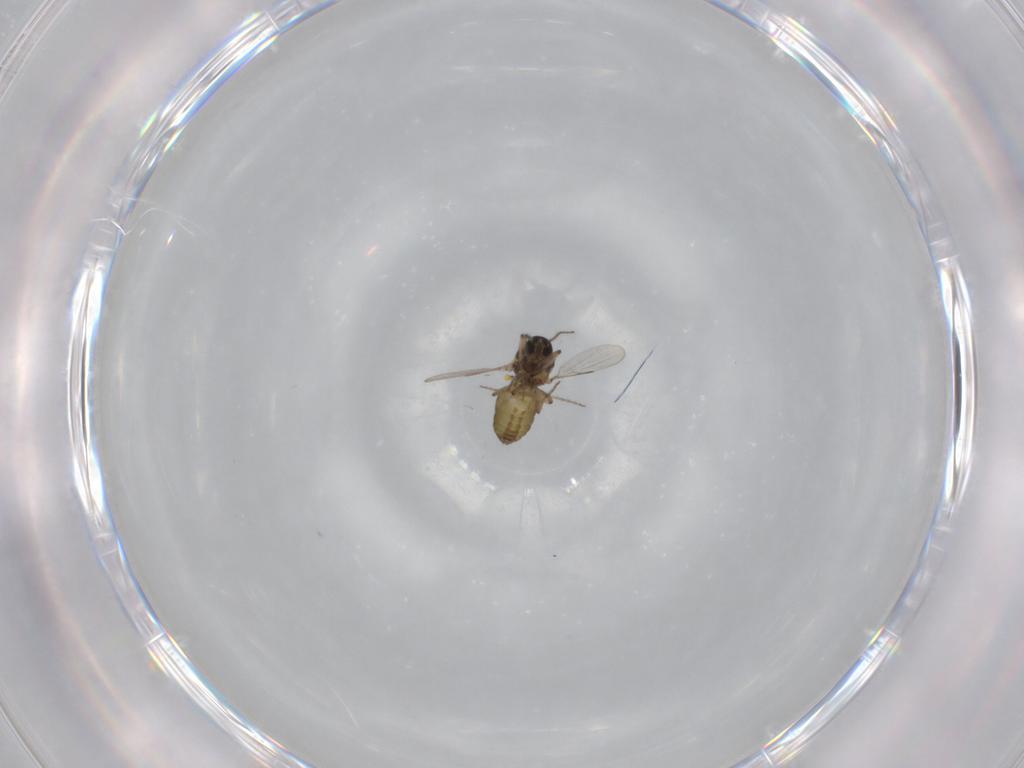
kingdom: Animalia
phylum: Arthropoda
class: Insecta
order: Diptera
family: Ceratopogonidae
